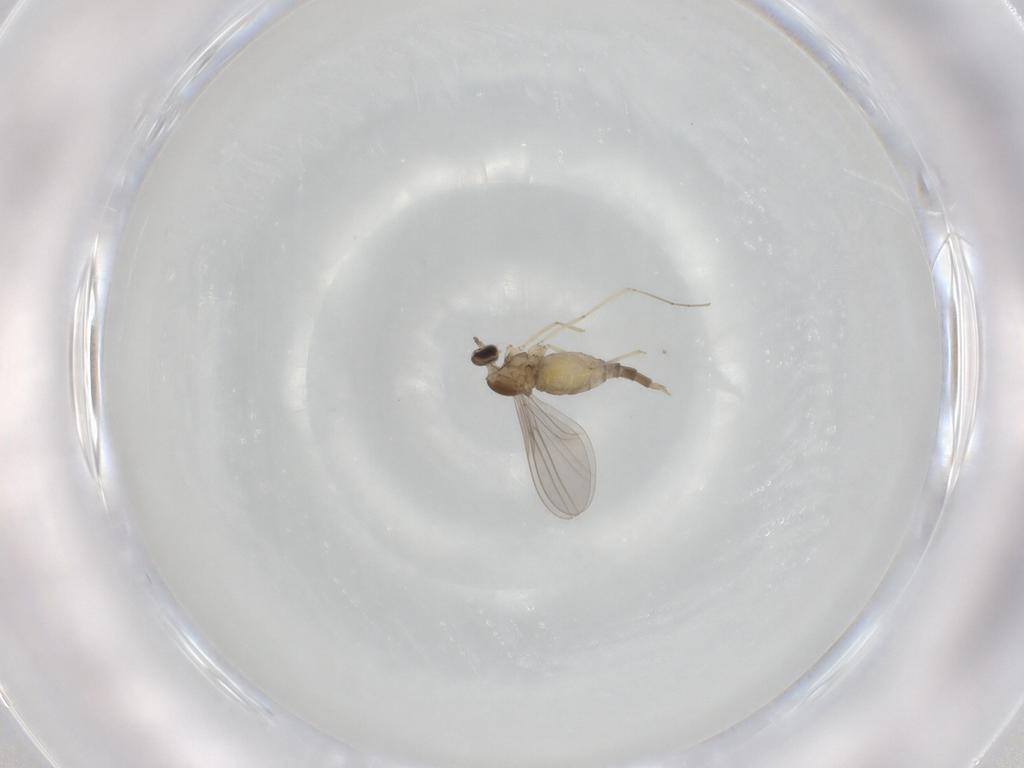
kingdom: Animalia
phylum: Arthropoda
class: Insecta
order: Diptera
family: Cecidomyiidae
